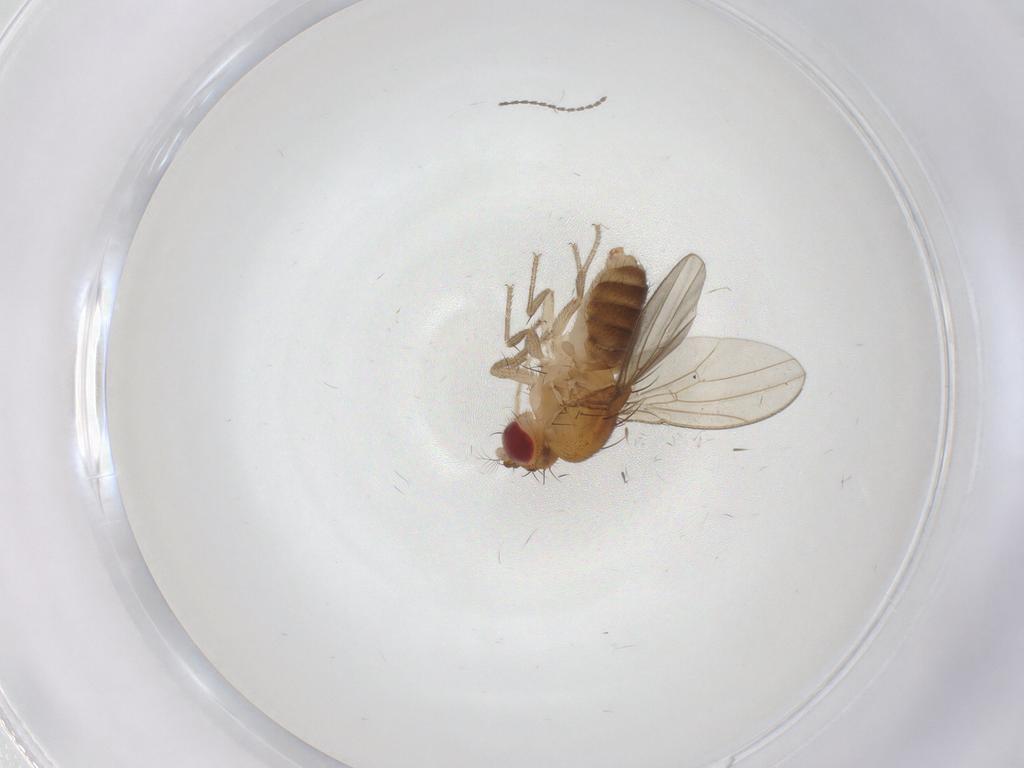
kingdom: Animalia
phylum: Arthropoda
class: Insecta
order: Diptera
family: Drosophilidae
